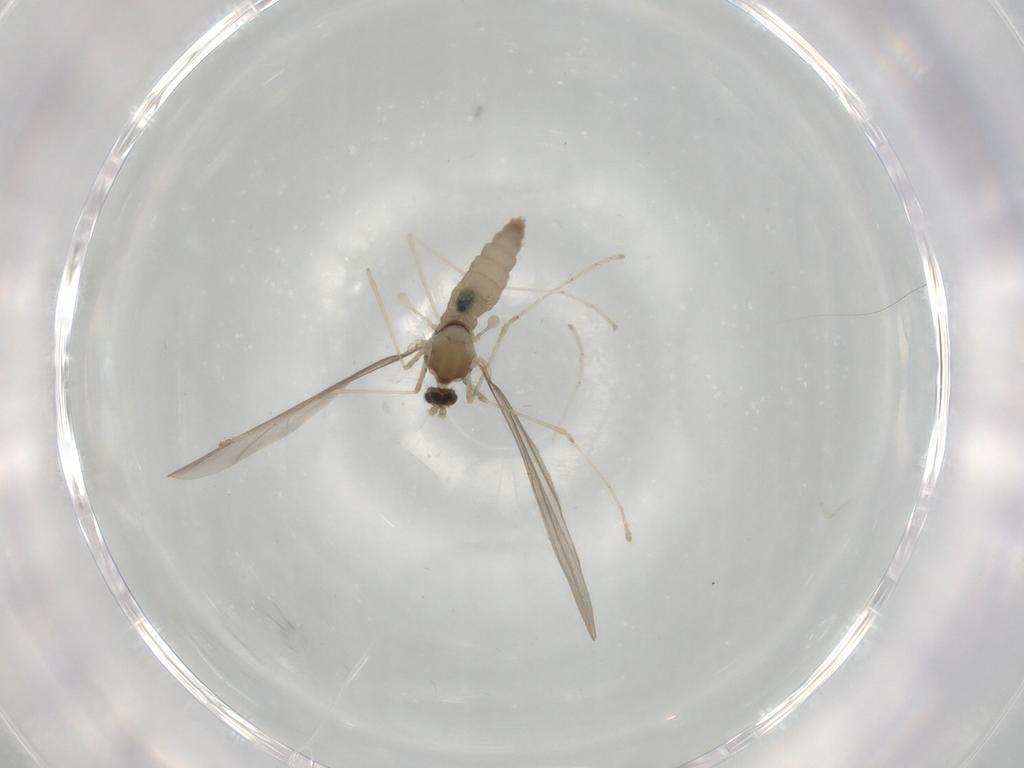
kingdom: Animalia
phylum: Arthropoda
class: Insecta
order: Diptera
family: Cecidomyiidae
